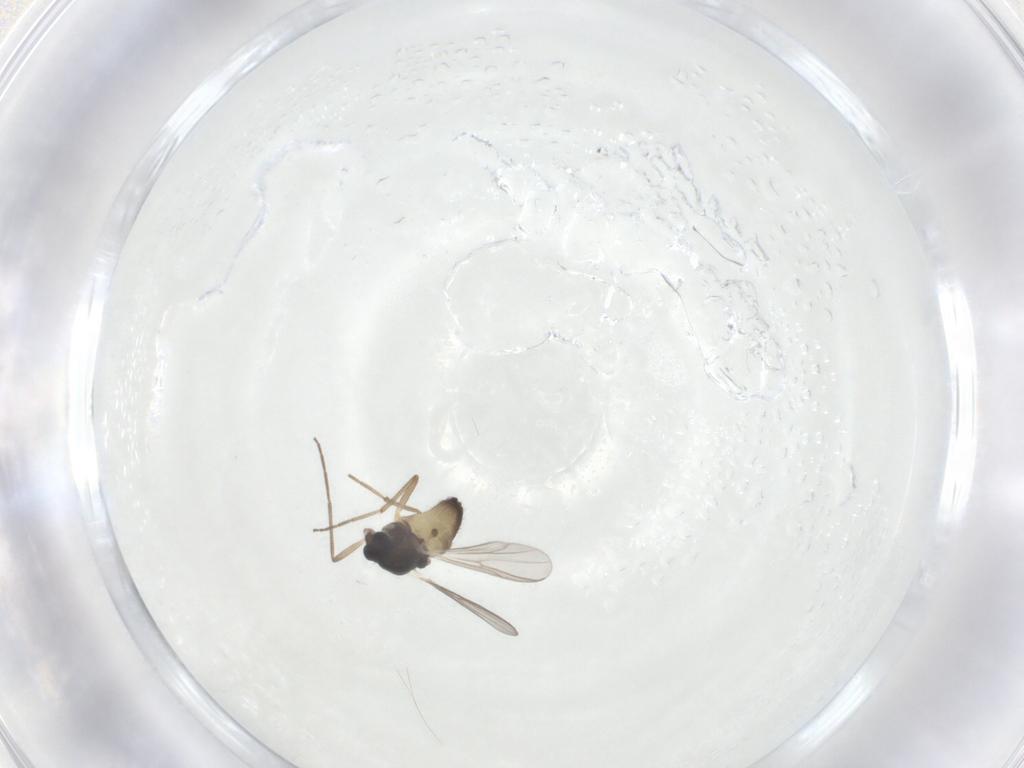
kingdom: Animalia
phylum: Arthropoda
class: Insecta
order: Diptera
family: Chironomidae
